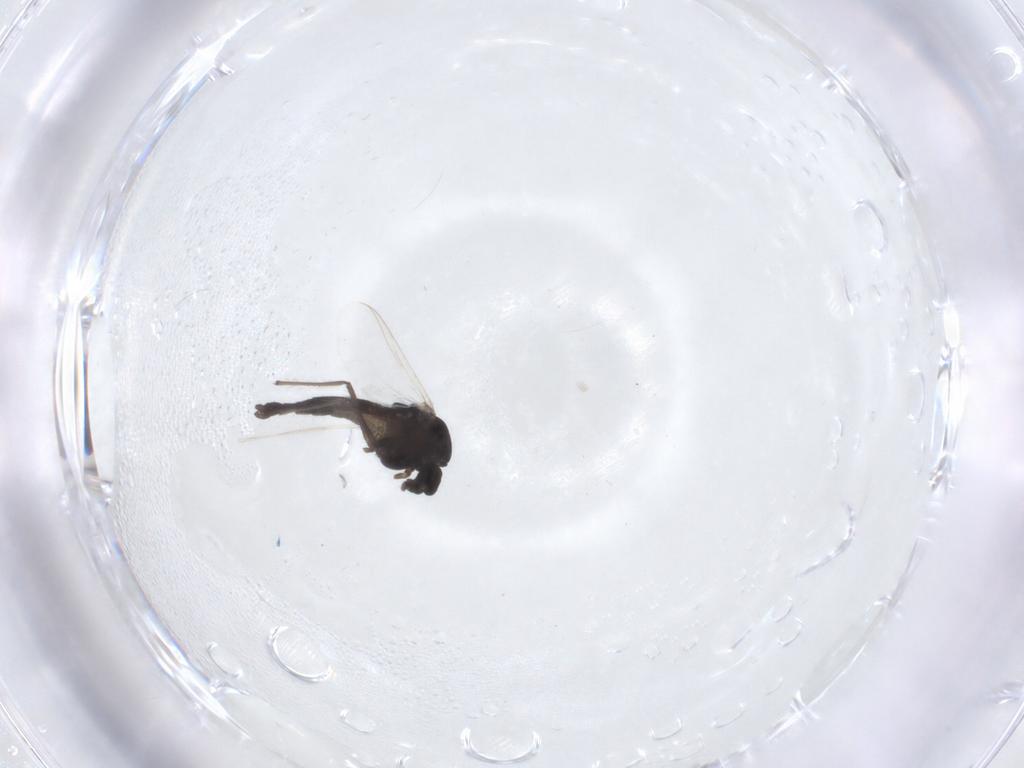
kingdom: Animalia
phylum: Arthropoda
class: Insecta
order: Diptera
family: Chironomidae
